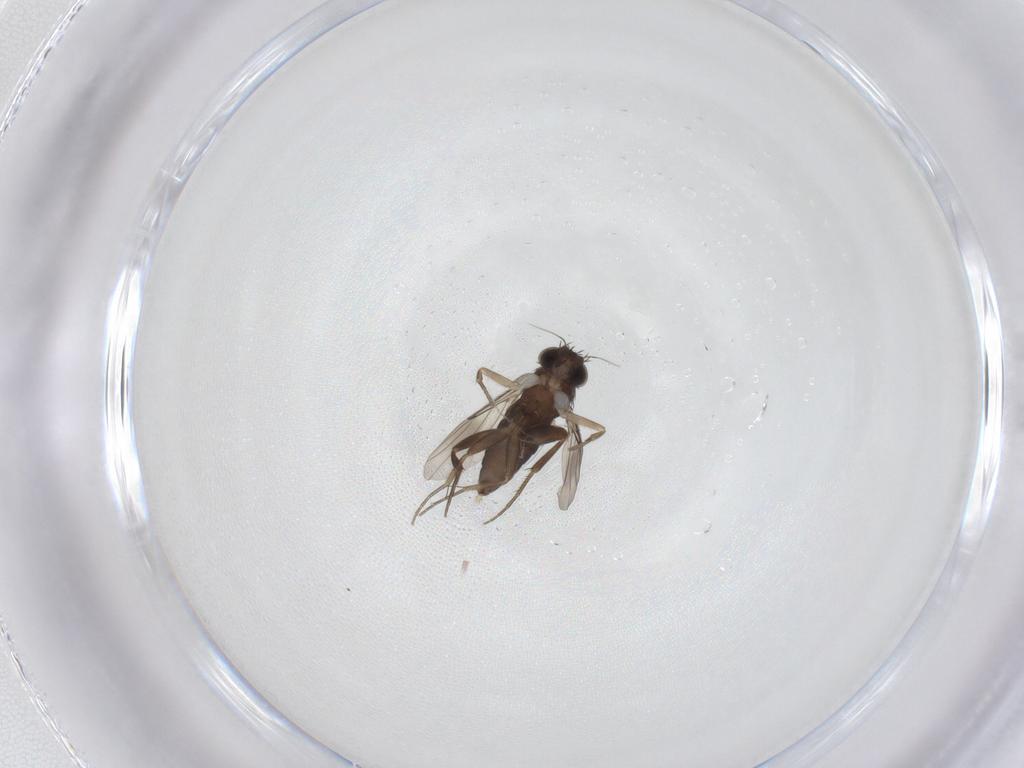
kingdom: Animalia
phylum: Arthropoda
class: Insecta
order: Diptera
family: Phoridae
